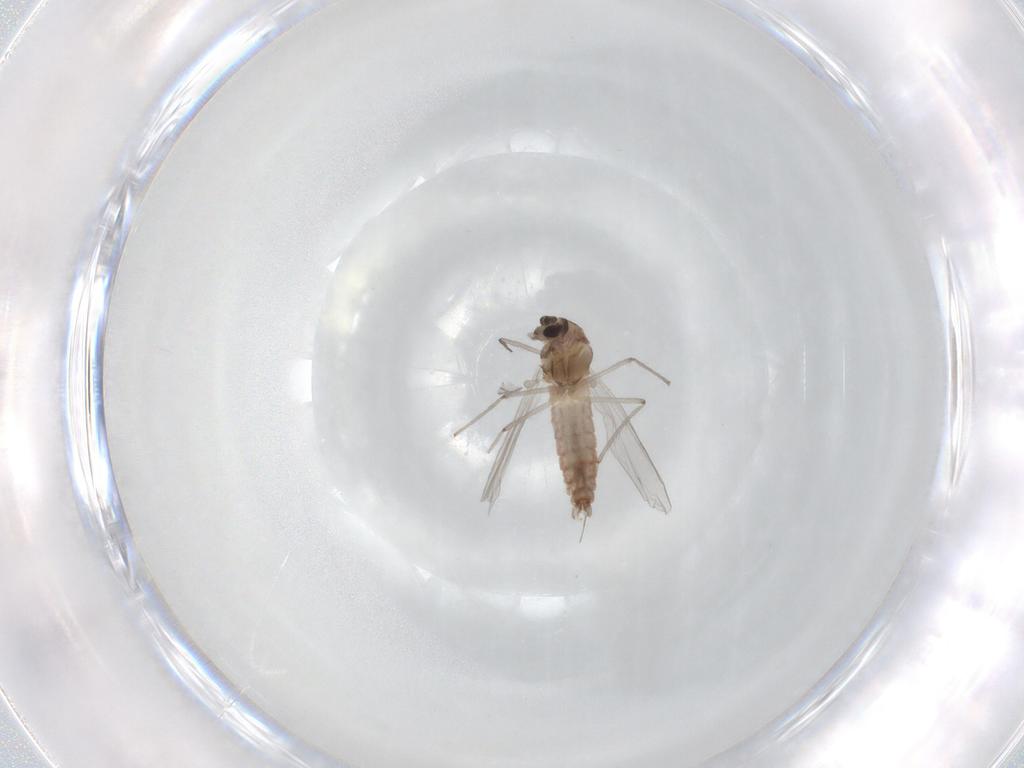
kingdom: Animalia
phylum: Arthropoda
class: Insecta
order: Diptera
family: Chironomidae
